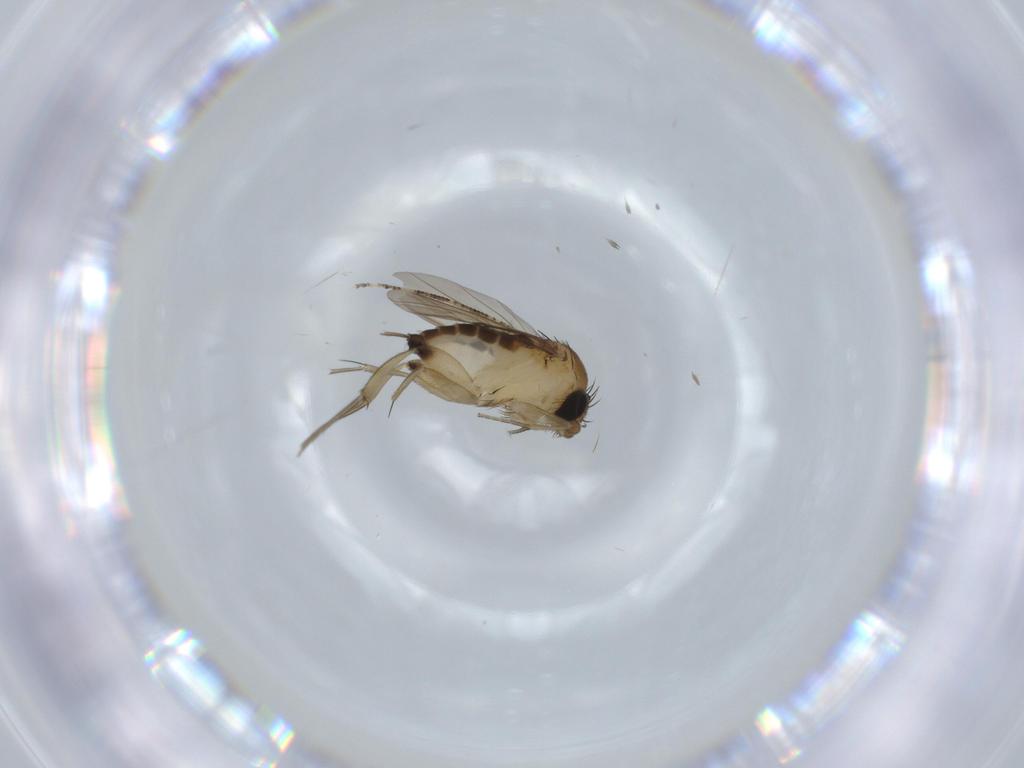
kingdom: Animalia
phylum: Arthropoda
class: Insecta
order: Diptera
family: Phoridae
